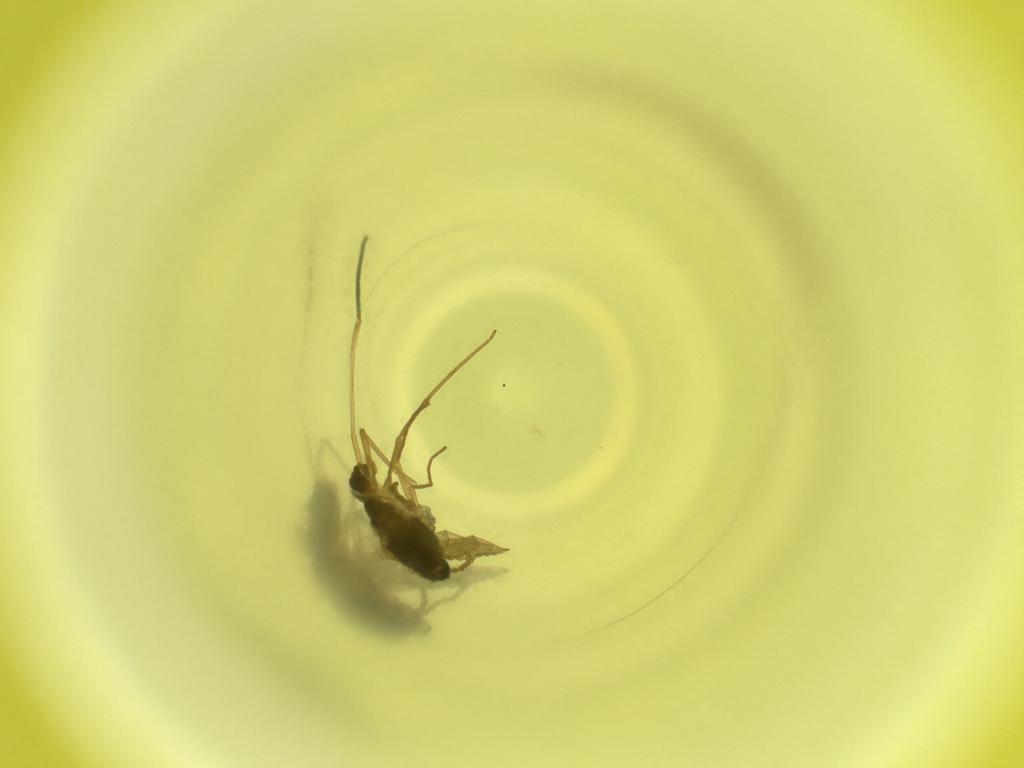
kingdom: Animalia
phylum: Arthropoda
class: Insecta
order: Diptera
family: Cecidomyiidae
